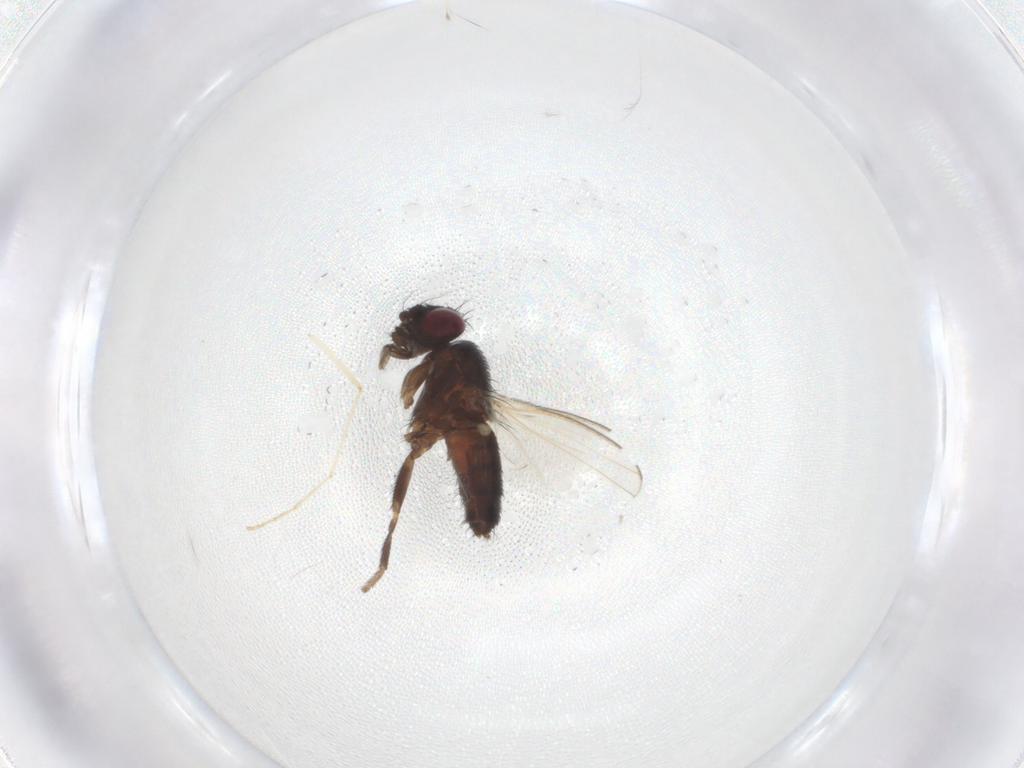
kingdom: Animalia
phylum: Arthropoda
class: Insecta
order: Diptera
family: Milichiidae
